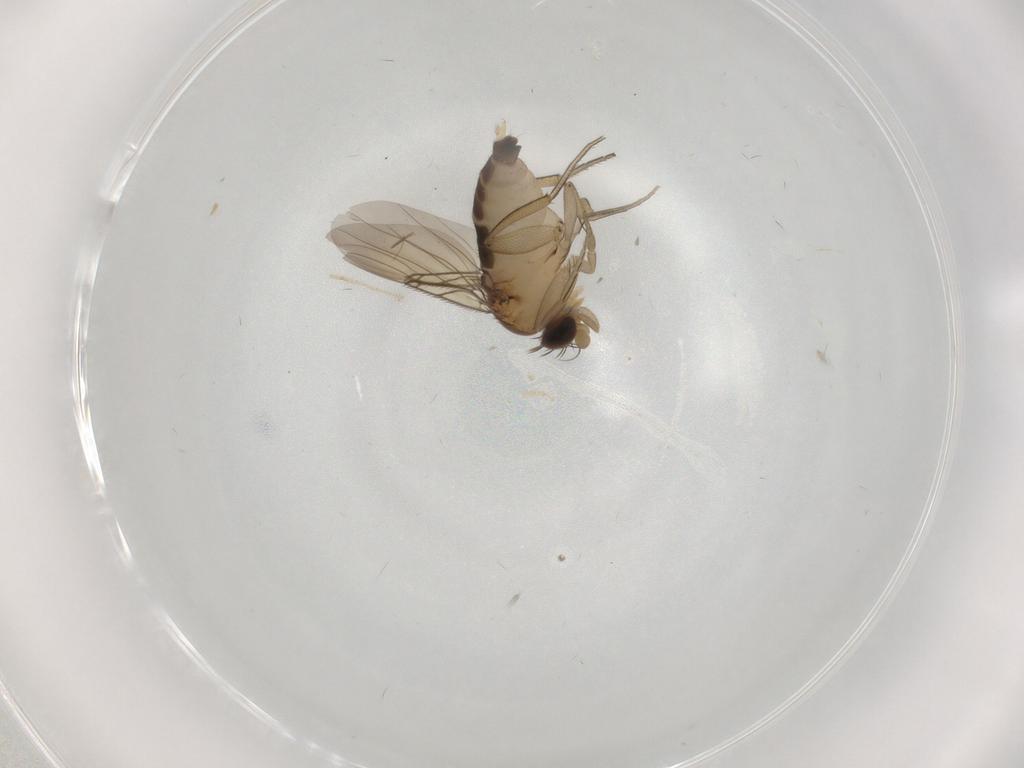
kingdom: Animalia
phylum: Arthropoda
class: Insecta
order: Diptera
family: Phoridae
